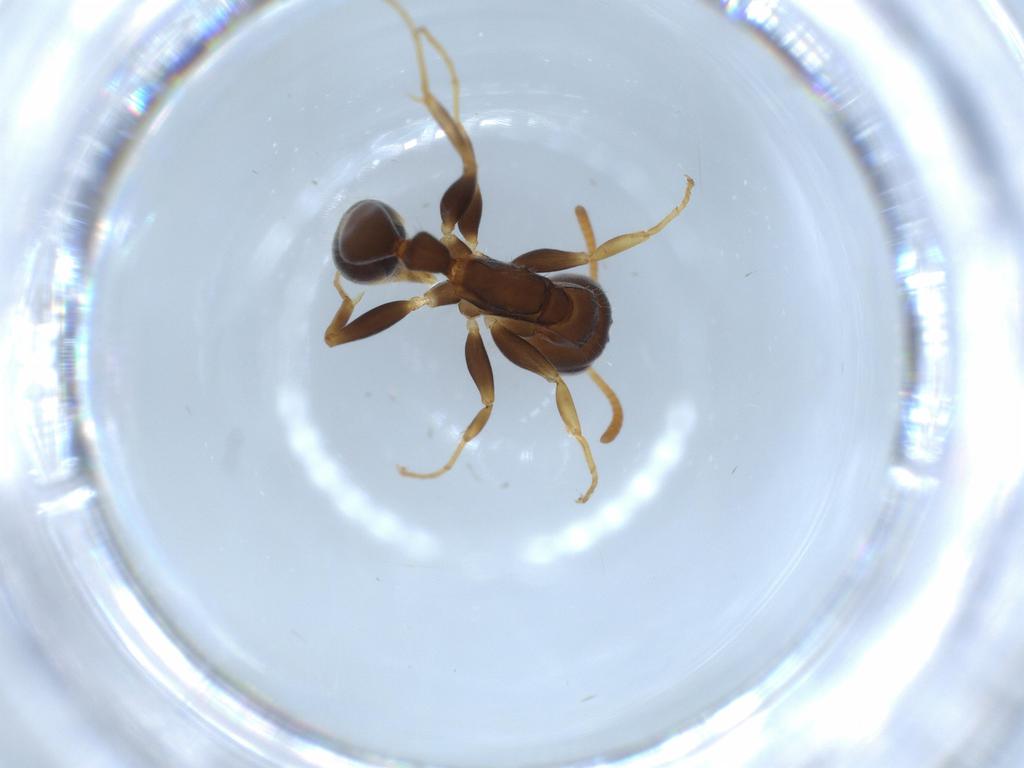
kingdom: Animalia
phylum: Arthropoda
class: Insecta
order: Hymenoptera
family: Formicidae
